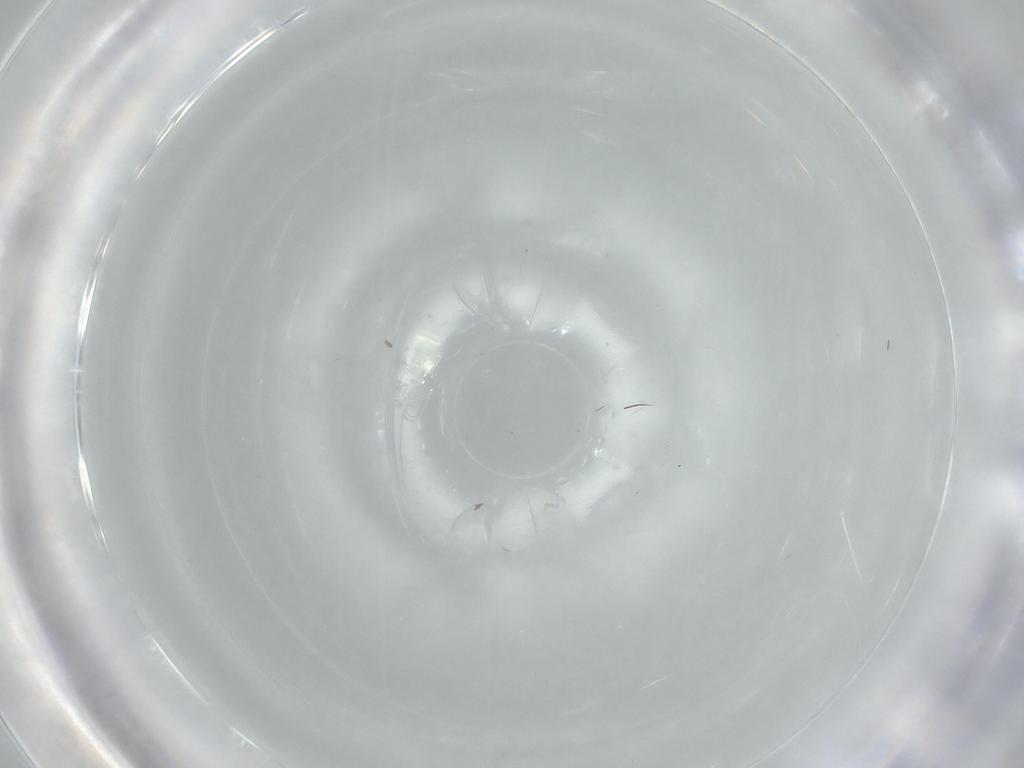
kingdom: Animalia
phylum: Arthropoda
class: Insecta
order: Diptera
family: Cecidomyiidae
